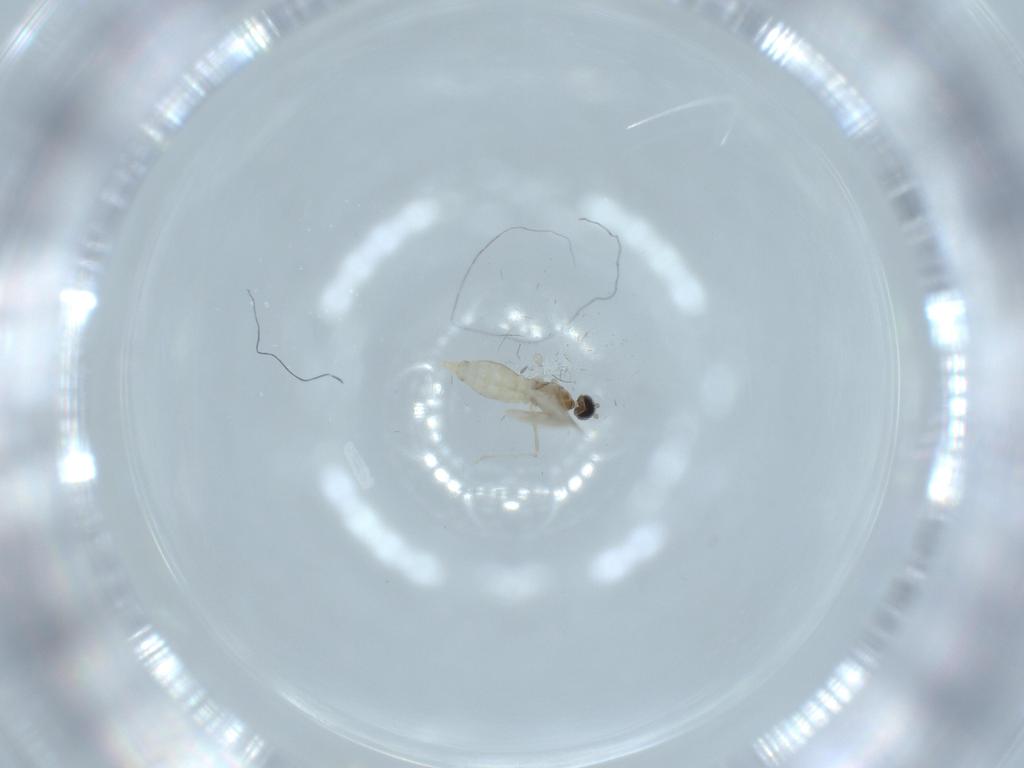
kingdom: Animalia
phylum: Arthropoda
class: Insecta
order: Diptera
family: Cecidomyiidae
